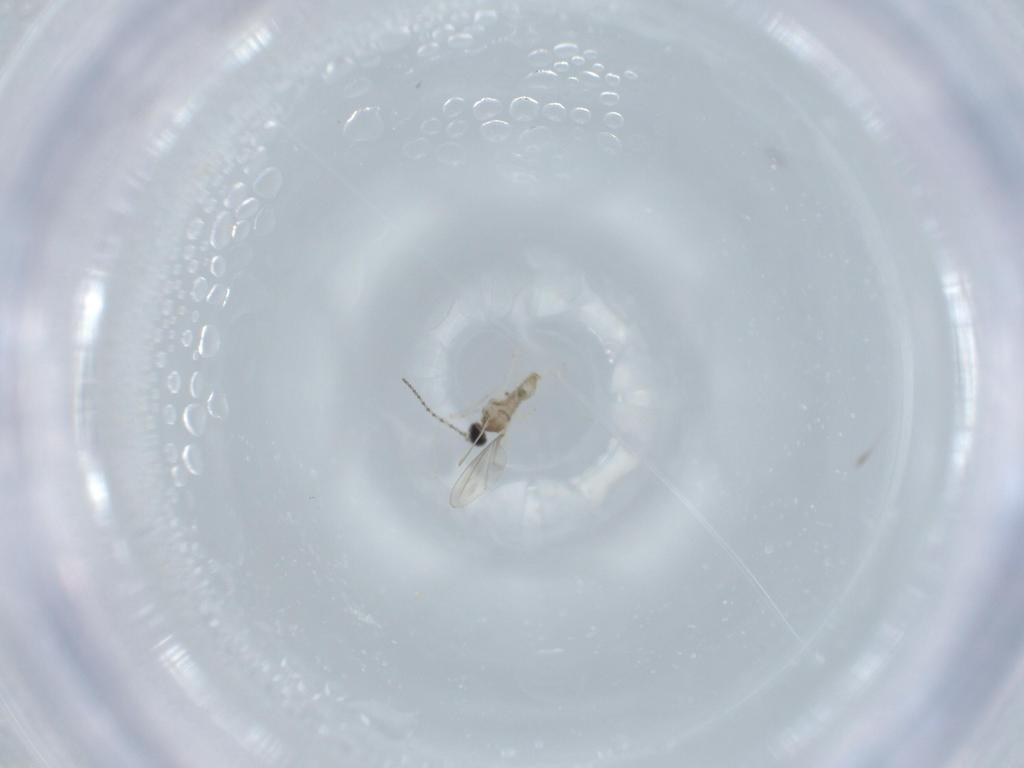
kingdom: Animalia
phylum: Arthropoda
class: Insecta
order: Diptera
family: Cecidomyiidae
